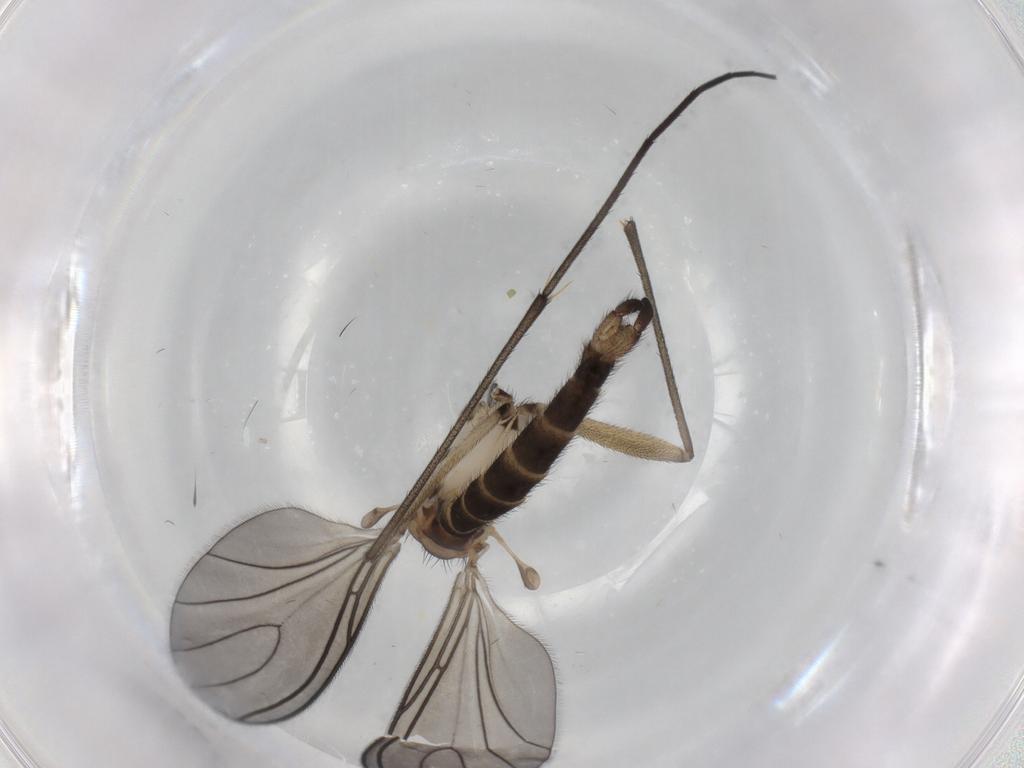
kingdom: Animalia
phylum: Arthropoda
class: Insecta
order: Diptera
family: Sciaridae
